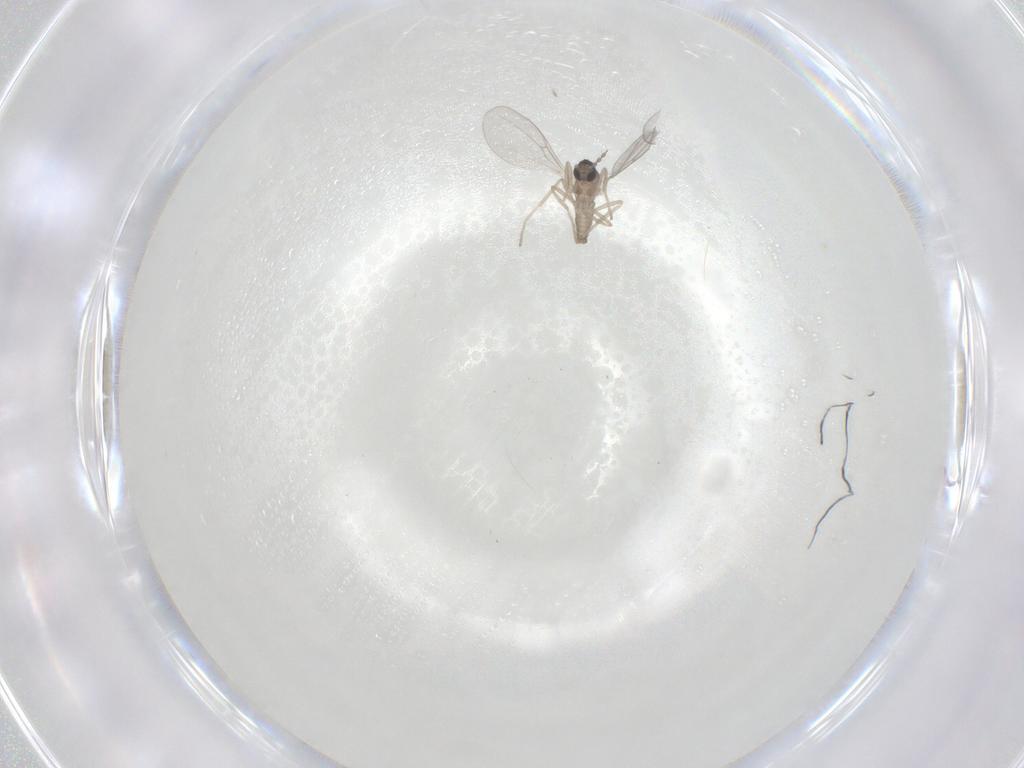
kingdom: Animalia
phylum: Arthropoda
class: Insecta
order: Diptera
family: Cecidomyiidae
